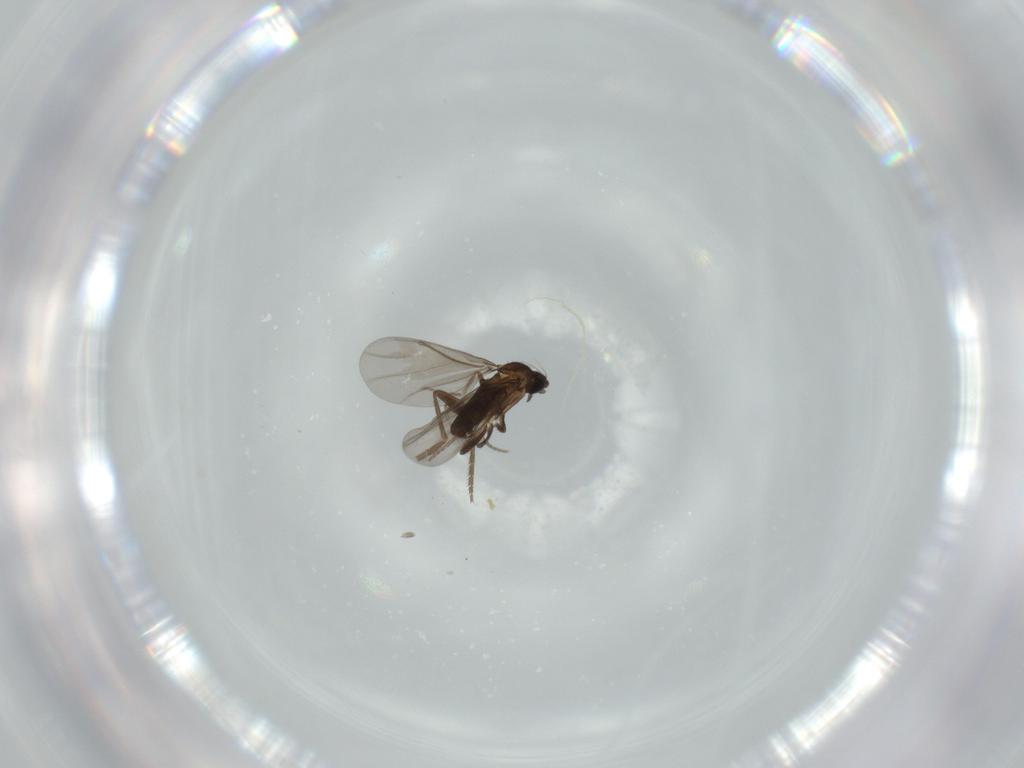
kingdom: Animalia
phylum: Arthropoda
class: Insecta
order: Diptera
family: Phoridae
